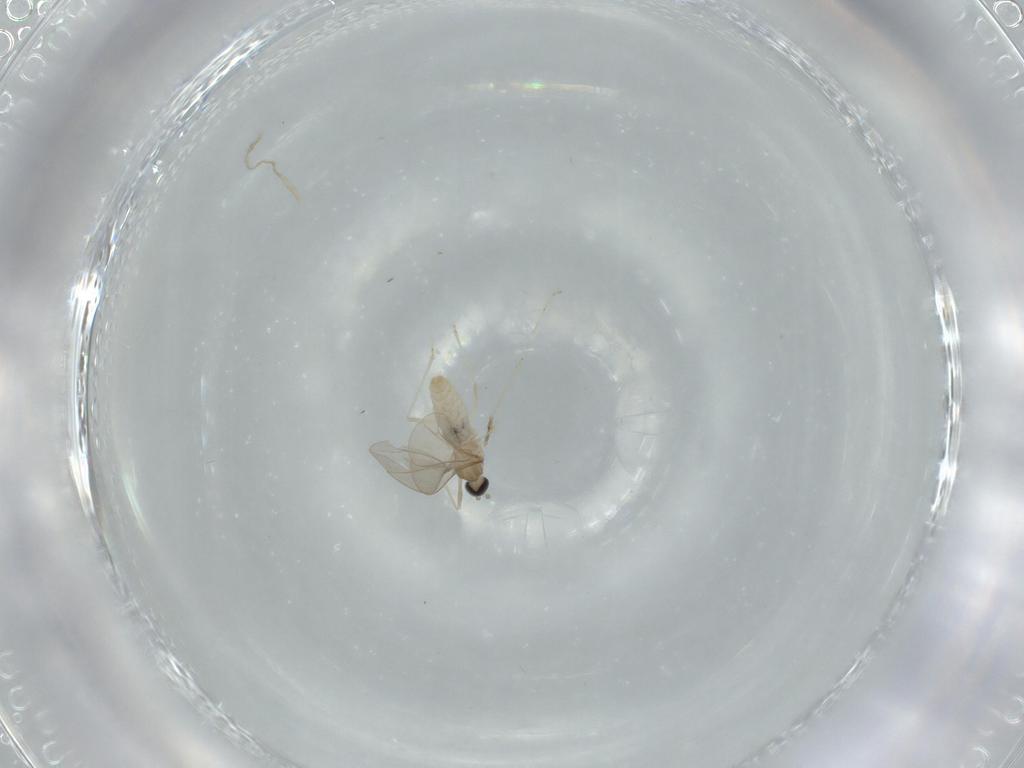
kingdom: Animalia
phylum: Arthropoda
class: Insecta
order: Diptera
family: Cecidomyiidae
